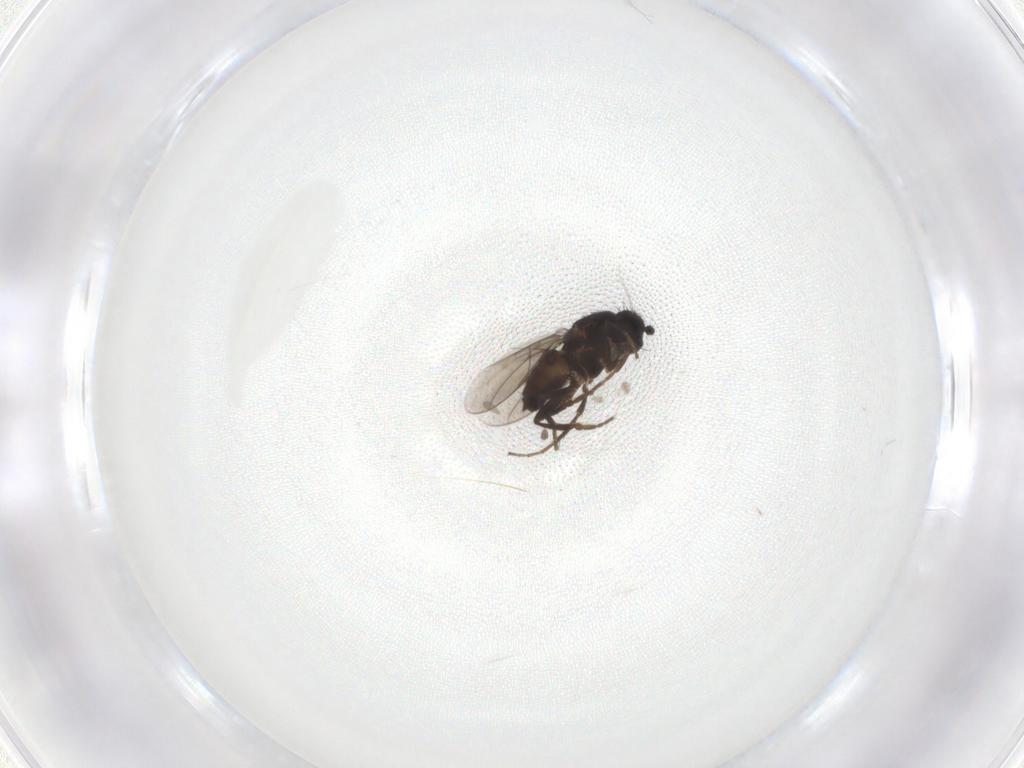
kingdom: Animalia
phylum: Arthropoda
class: Insecta
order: Diptera
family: Sphaeroceridae
